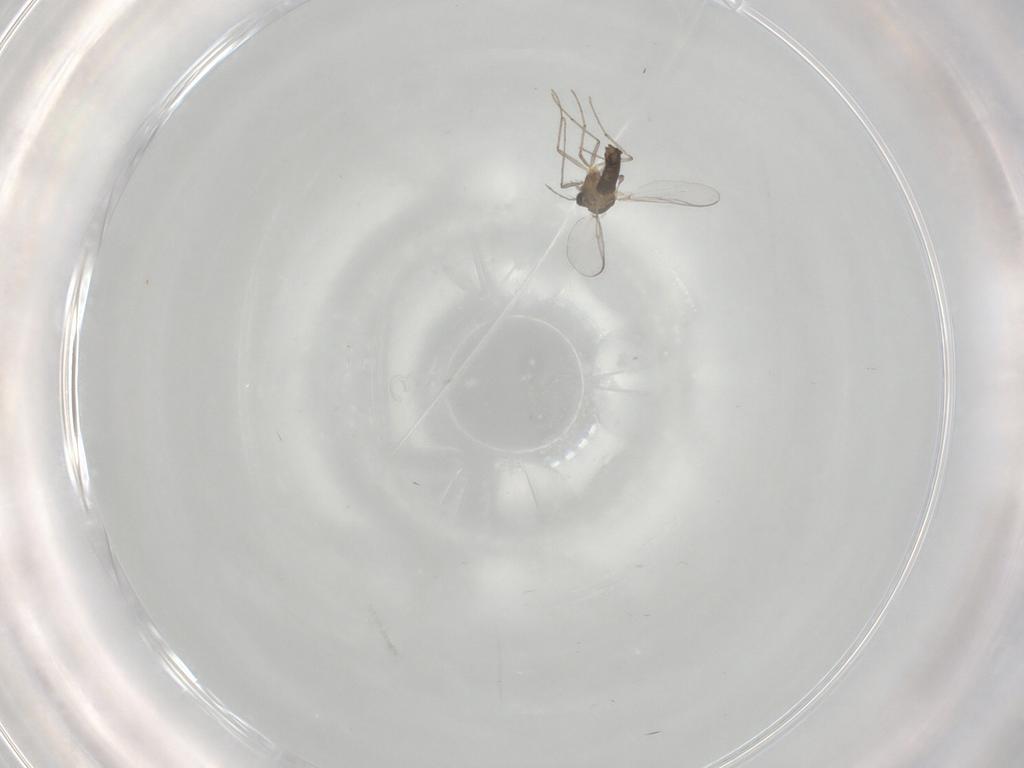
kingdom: Animalia
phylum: Arthropoda
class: Insecta
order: Diptera
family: Chironomidae
